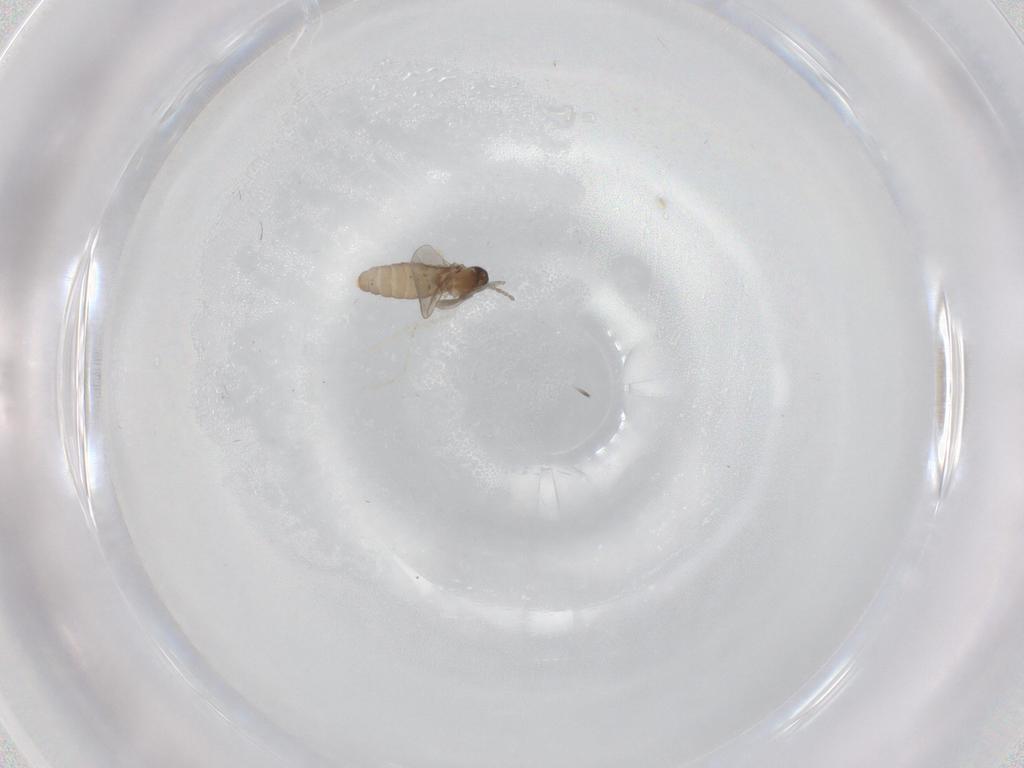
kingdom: Animalia
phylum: Arthropoda
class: Insecta
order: Diptera
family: Cecidomyiidae
